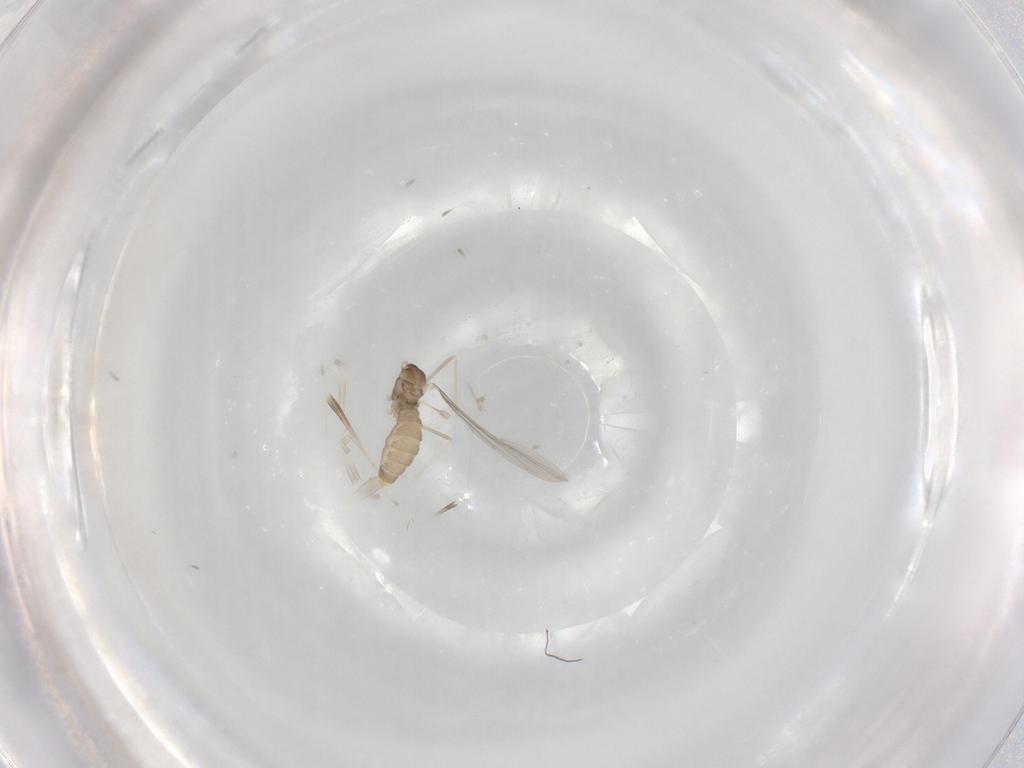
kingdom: Animalia
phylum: Arthropoda
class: Insecta
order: Diptera
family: Cecidomyiidae
